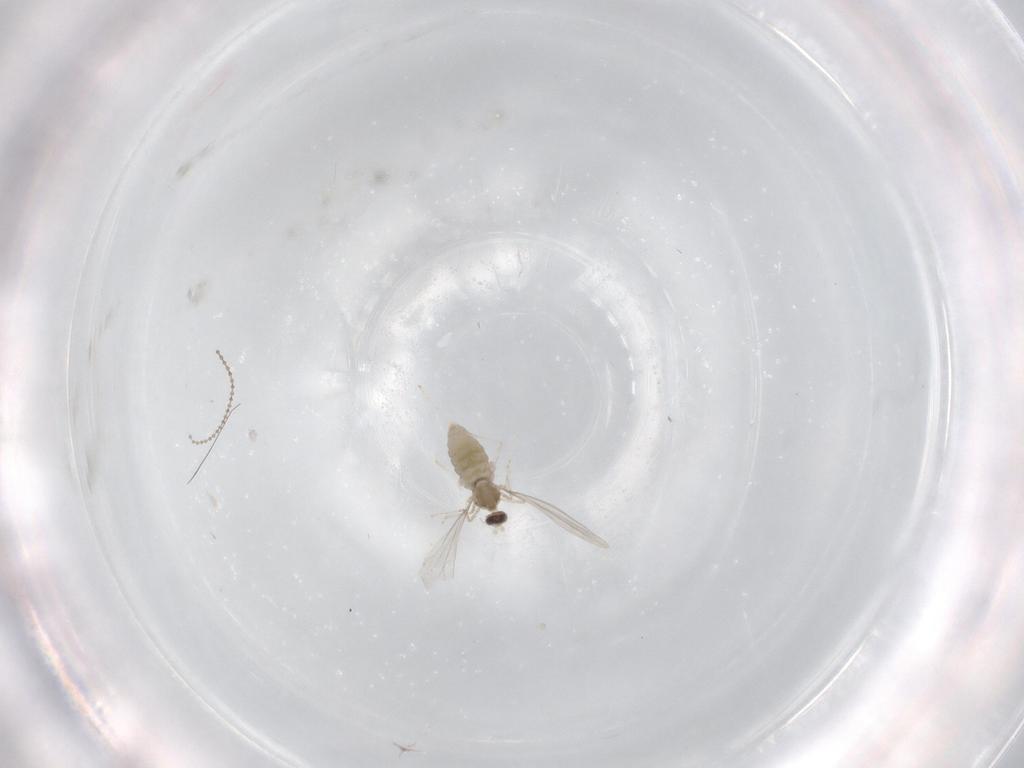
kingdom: Animalia
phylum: Arthropoda
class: Insecta
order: Diptera
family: Cecidomyiidae
